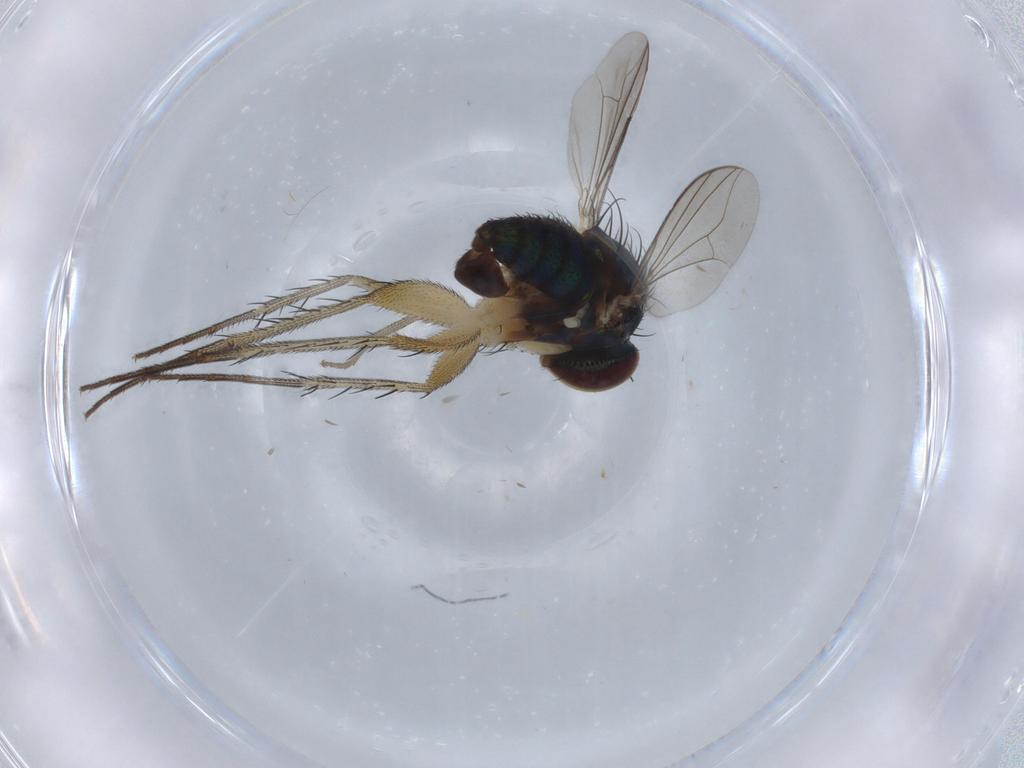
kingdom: Animalia
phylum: Arthropoda
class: Insecta
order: Diptera
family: Dolichopodidae
